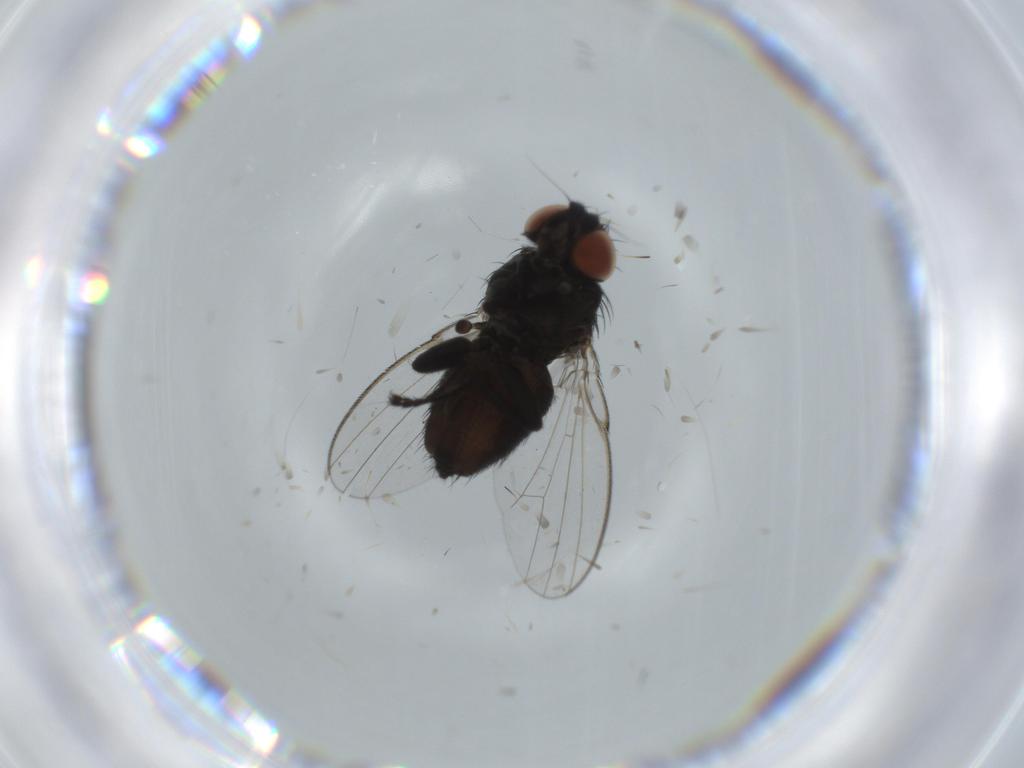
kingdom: Animalia
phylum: Arthropoda
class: Insecta
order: Diptera
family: Milichiidae
